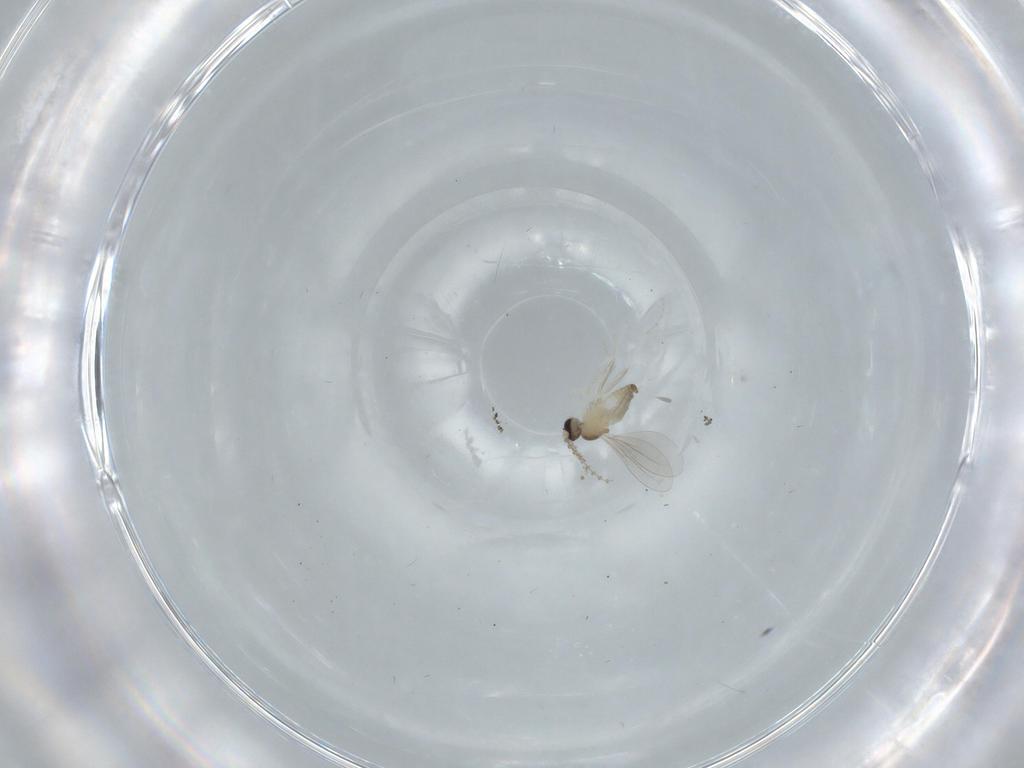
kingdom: Animalia
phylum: Arthropoda
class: Insecta
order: Diptera
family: Cecidomyiidae
